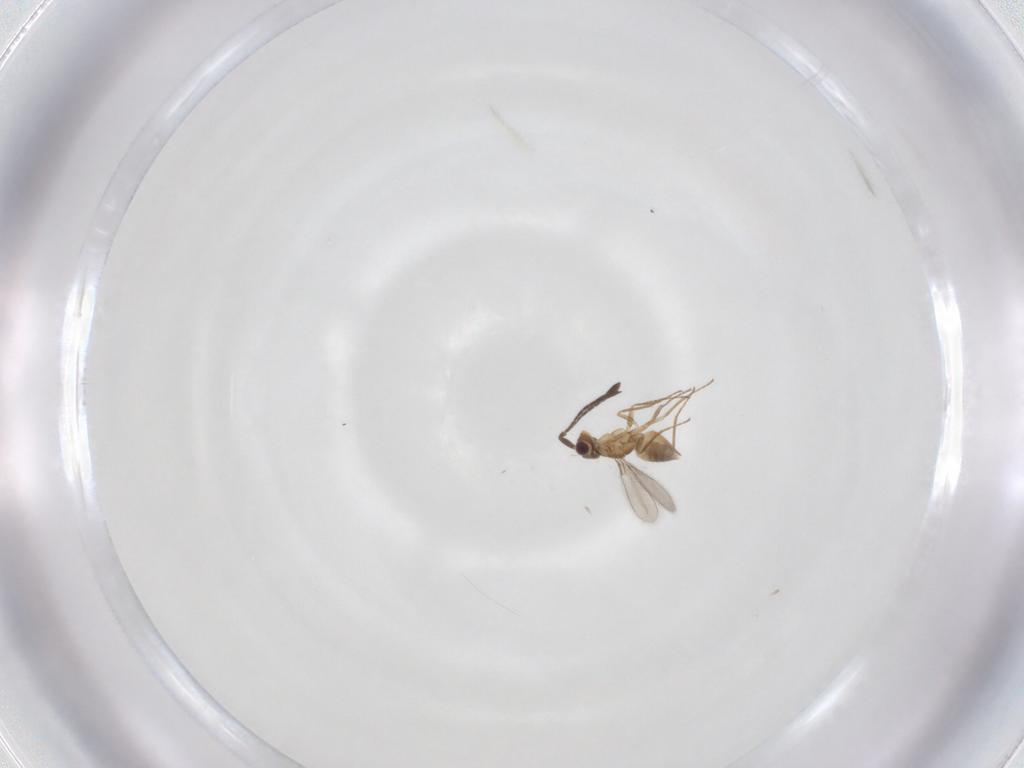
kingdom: Animalia
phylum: Arthropoda
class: Insecta
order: Hymenoptera
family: Mymaridae
